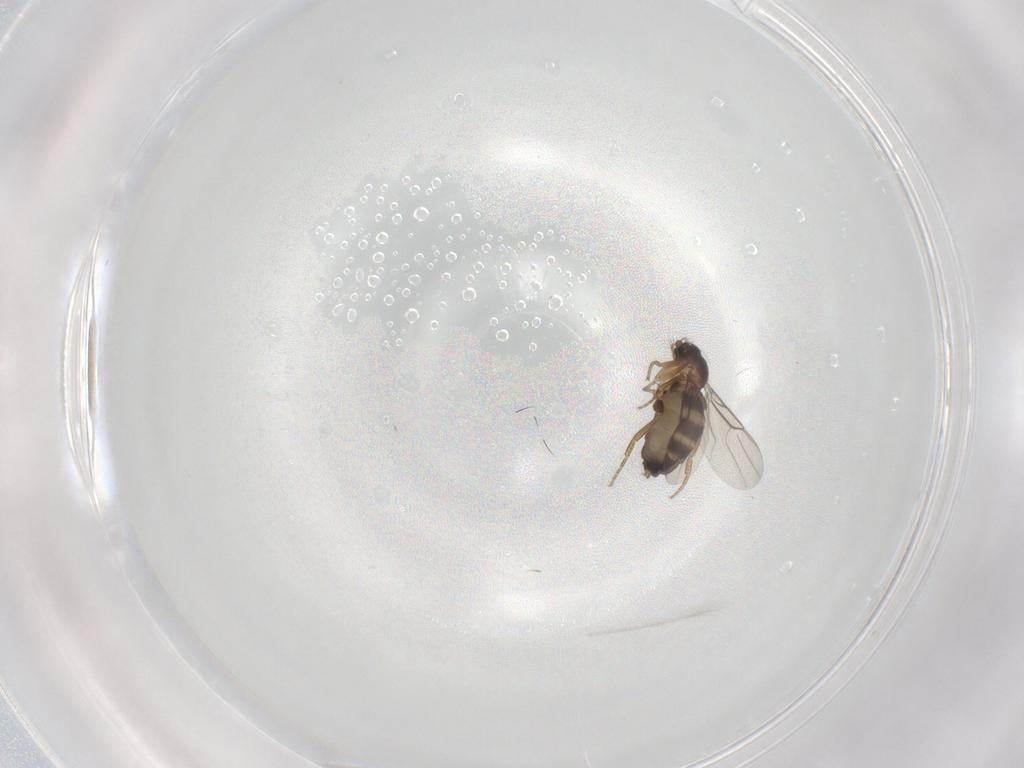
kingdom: Animalia
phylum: Arthropoda
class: Insecta
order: Diptera
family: Phoridae
